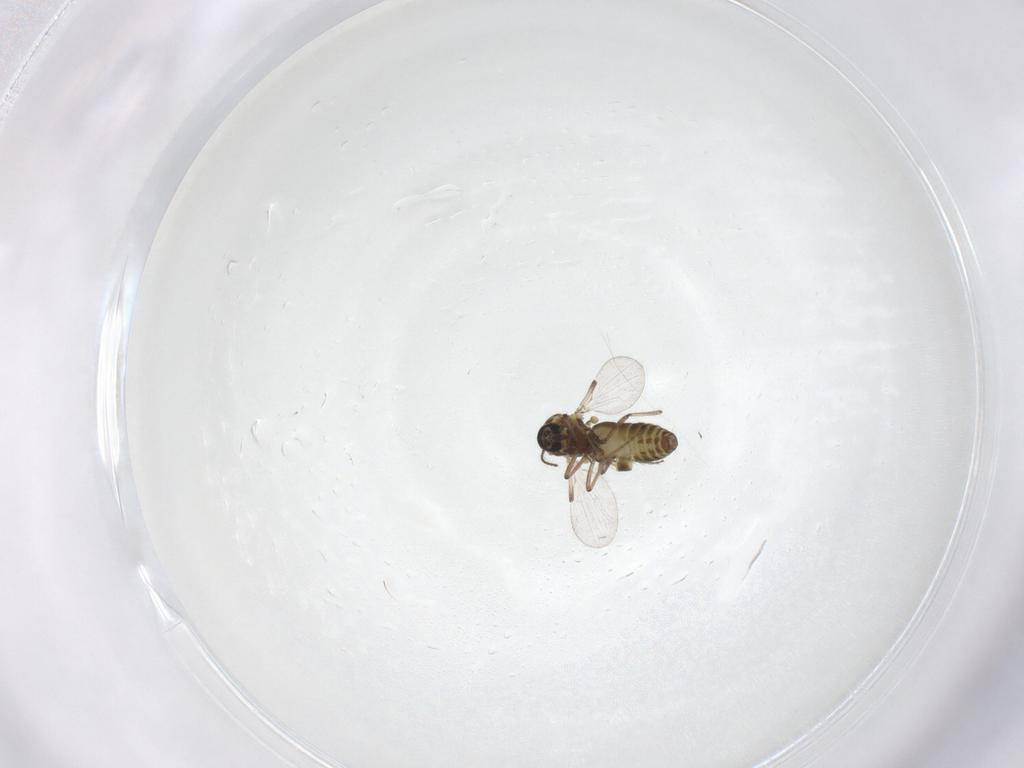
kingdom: Animalia
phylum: Arthropoda
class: Insecta
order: Diptera
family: Ceratopogonidae
